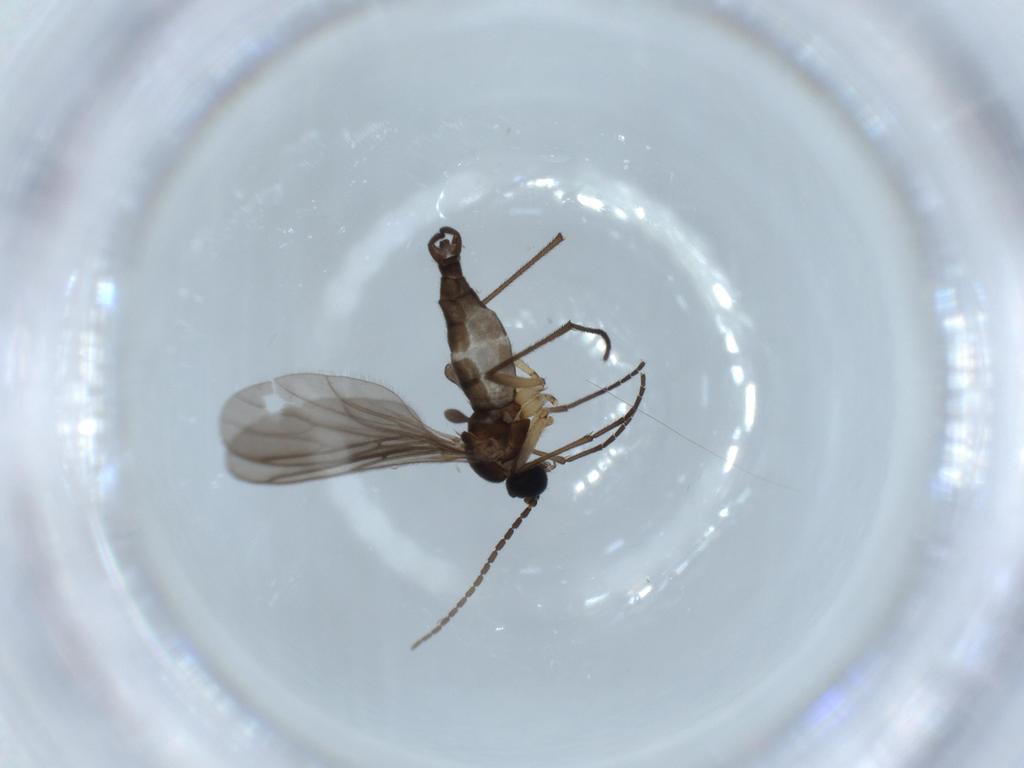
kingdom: Animalia
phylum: Arthropoda
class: Insecta
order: Diptera
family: Sciaridae
